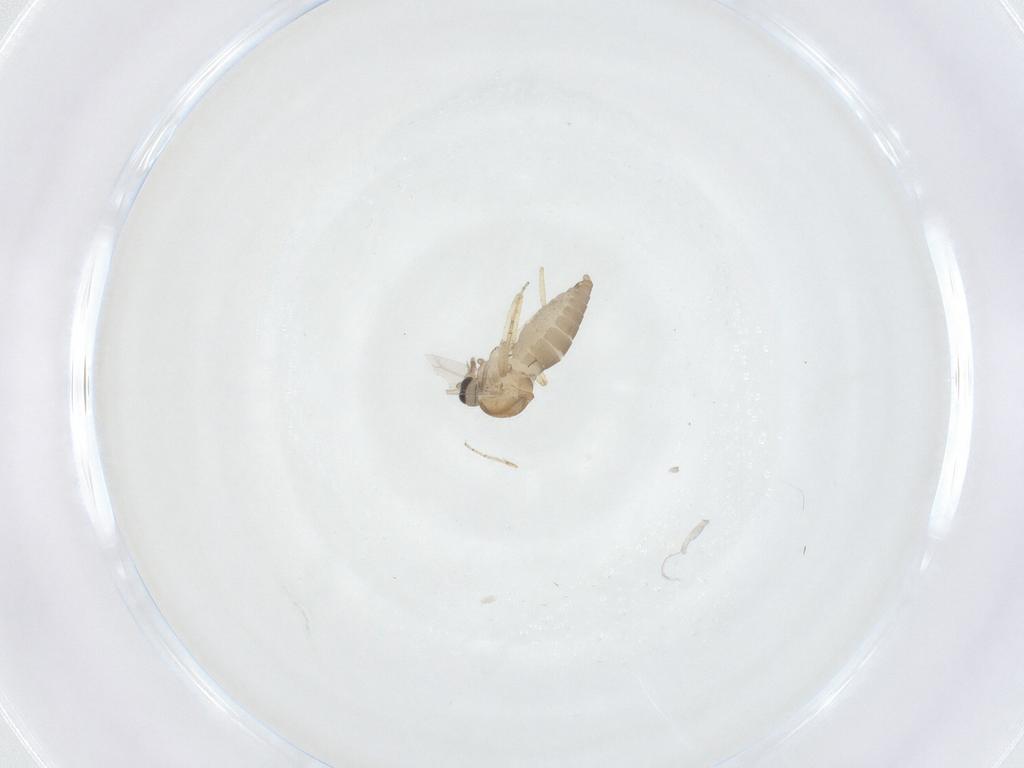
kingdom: Animalia
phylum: Arthropoda
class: Insecta
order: Diptera
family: Ceratopogonidae
